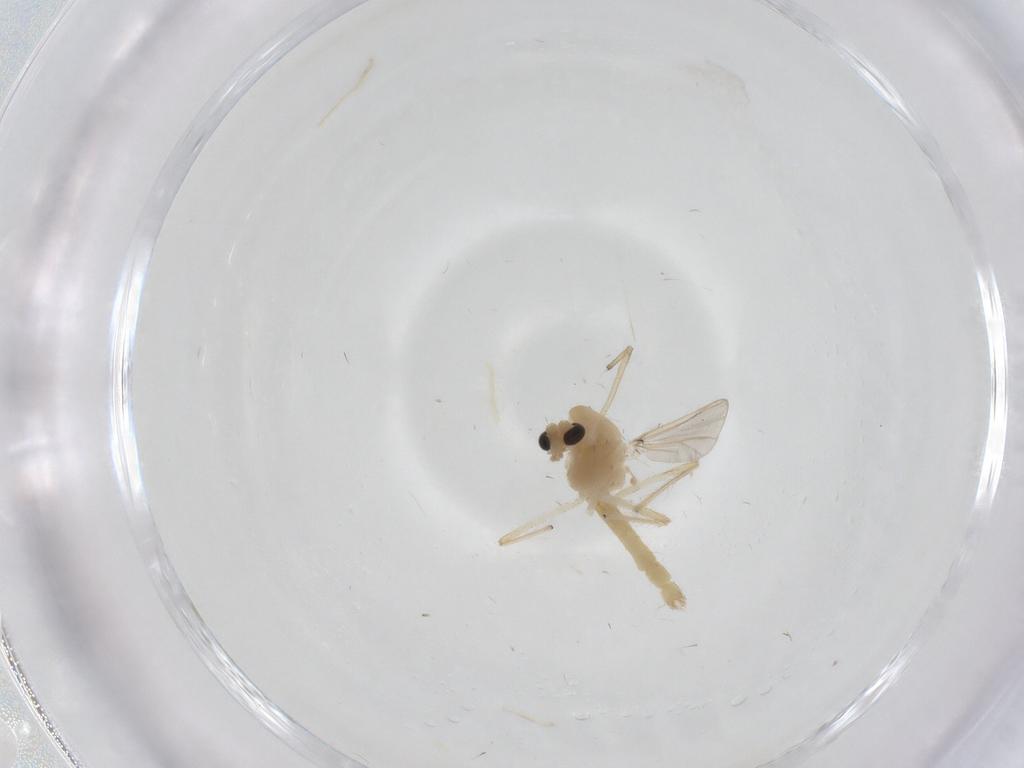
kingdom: Animalia
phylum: Arthropoda
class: Insecta
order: Diptera
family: Chironomidae
